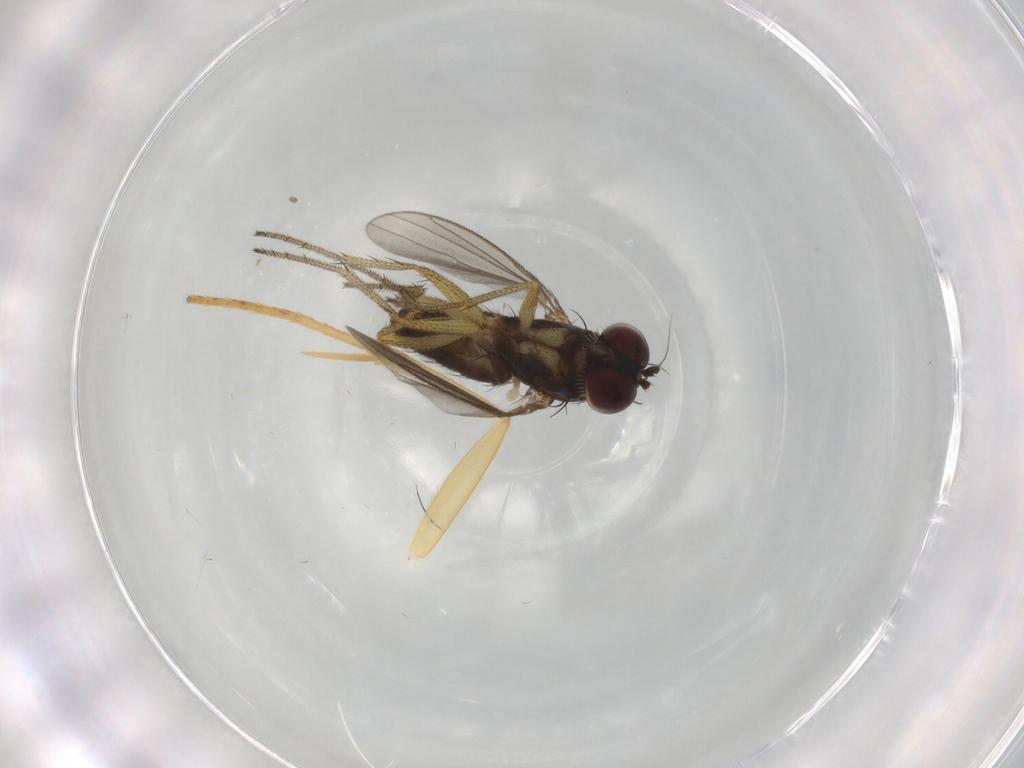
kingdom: Animalia
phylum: Arthropoda
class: Insecta
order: Diptera
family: Dolichopodidae
